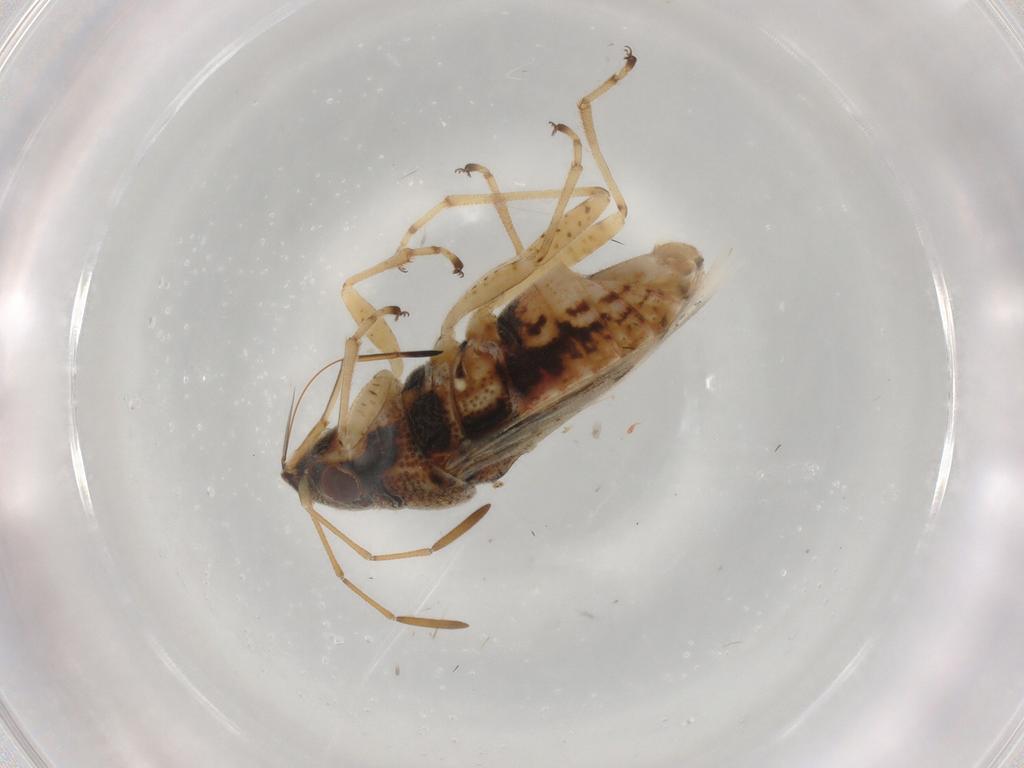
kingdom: Animalia
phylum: Arthropoda
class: Insecta
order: Hemiptera
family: Lygaeidae
